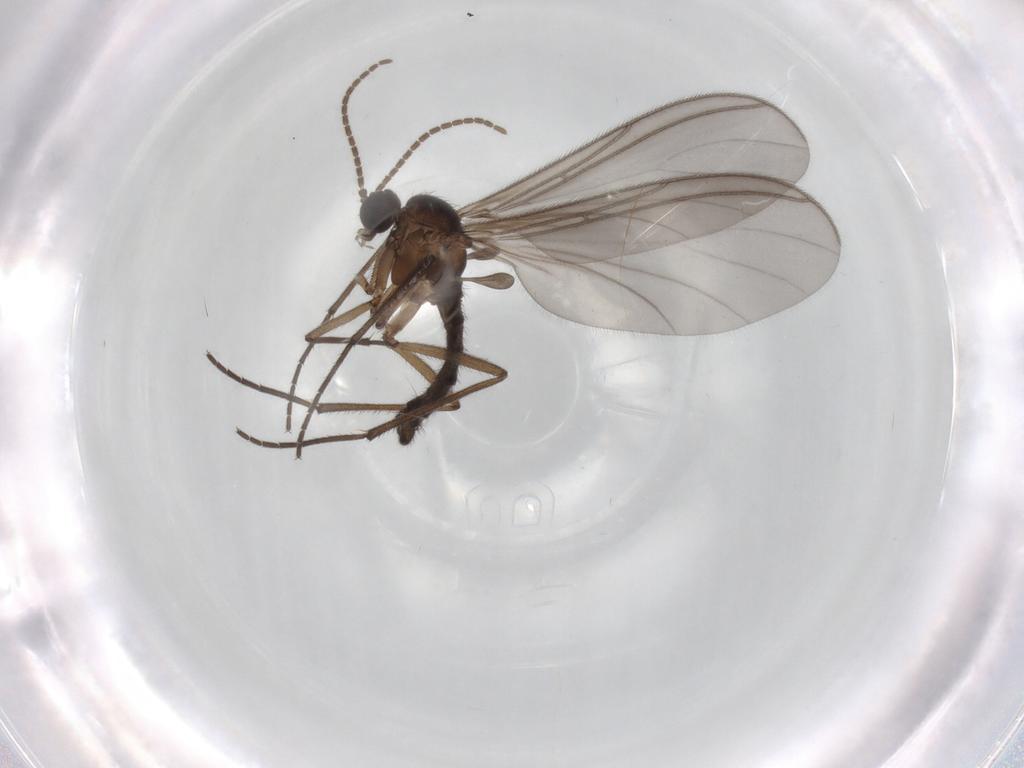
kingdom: Animalia
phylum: Arthropoda
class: Insecta
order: Diptera
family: Sciaridae
